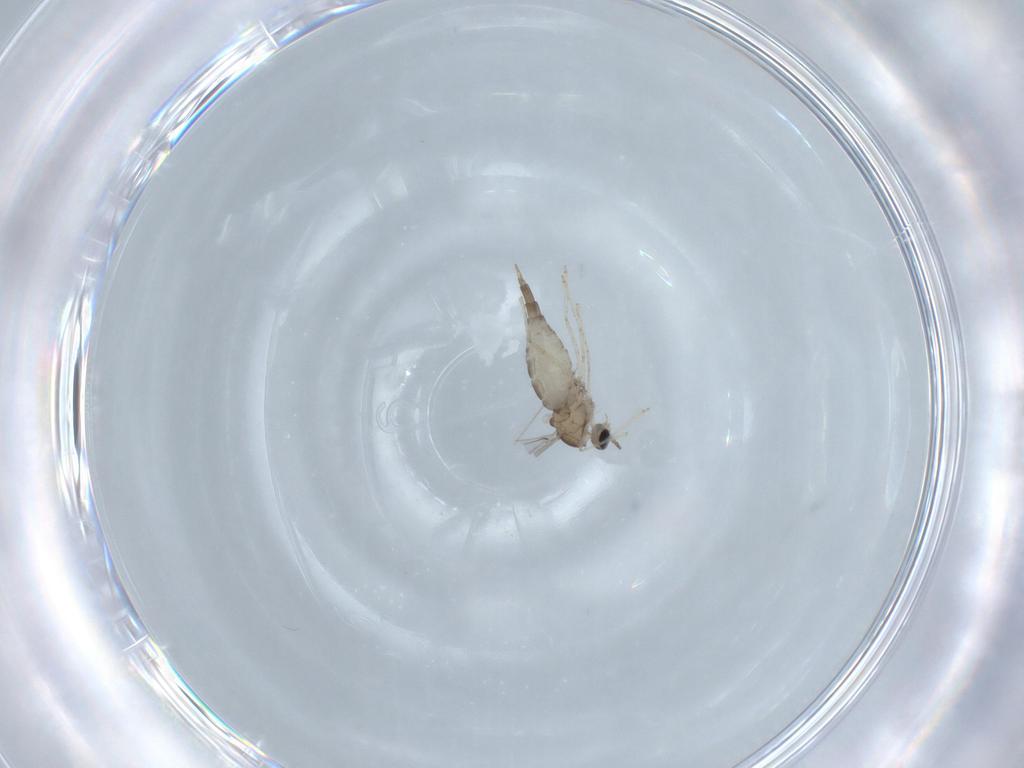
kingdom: Animalia
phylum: Arthropoda
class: Insecta
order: Diptera
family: Cecidomyiidae
